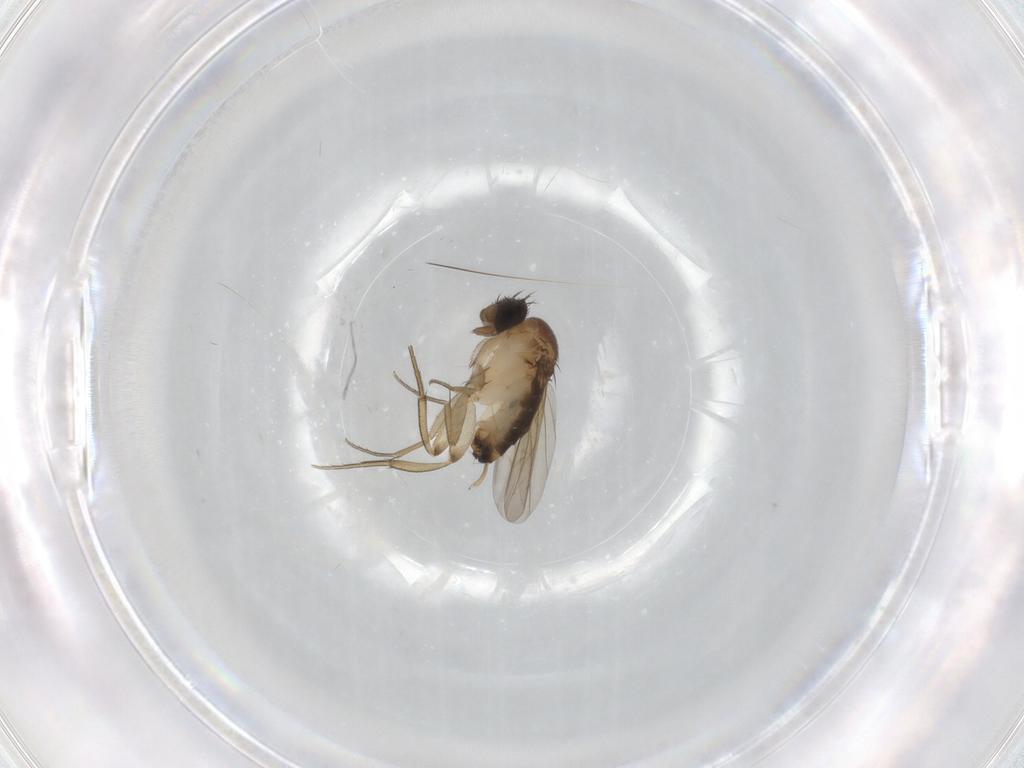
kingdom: Animalia
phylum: Arthropoda
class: Insecta
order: Diptera
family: Phoridae
